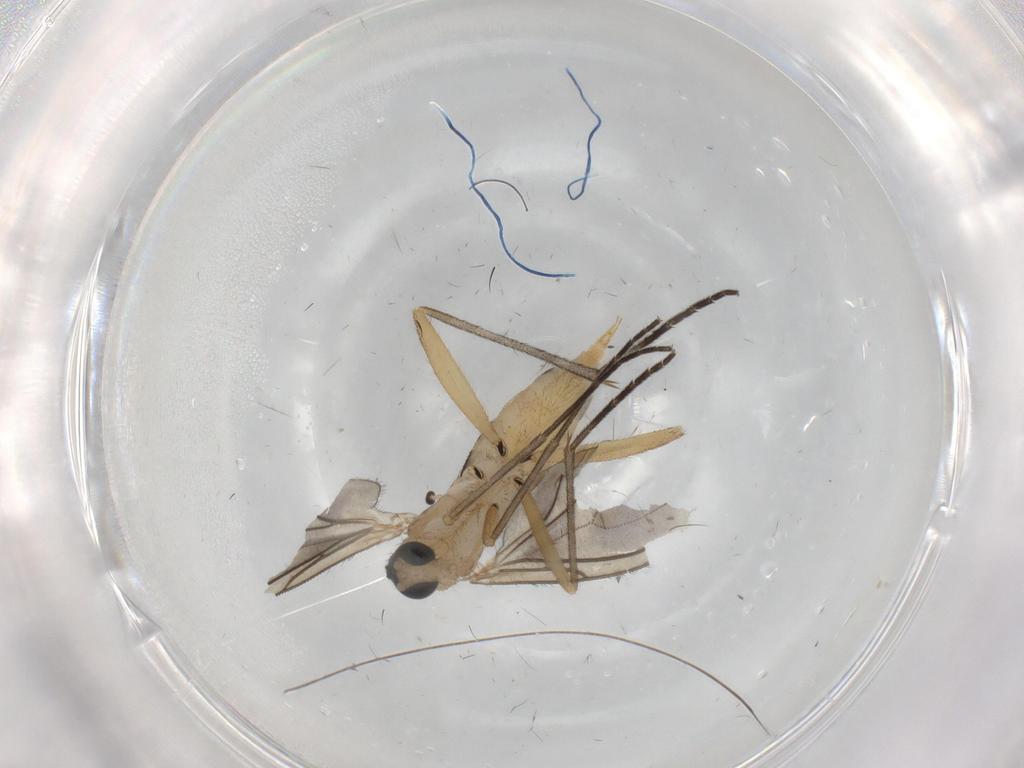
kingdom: Animalia
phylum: Arthropoda
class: Insecta
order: Diptera
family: Sciaridae
